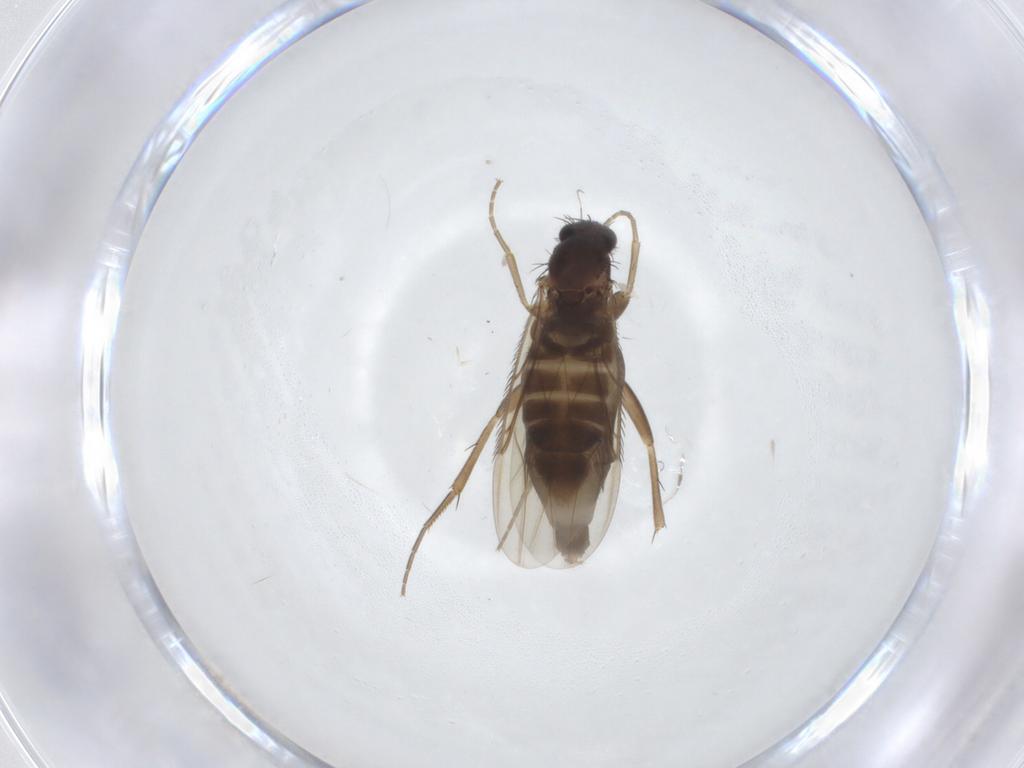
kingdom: Animalia
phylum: Arthropoda
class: Insecta
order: Diptera
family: Phoridae
